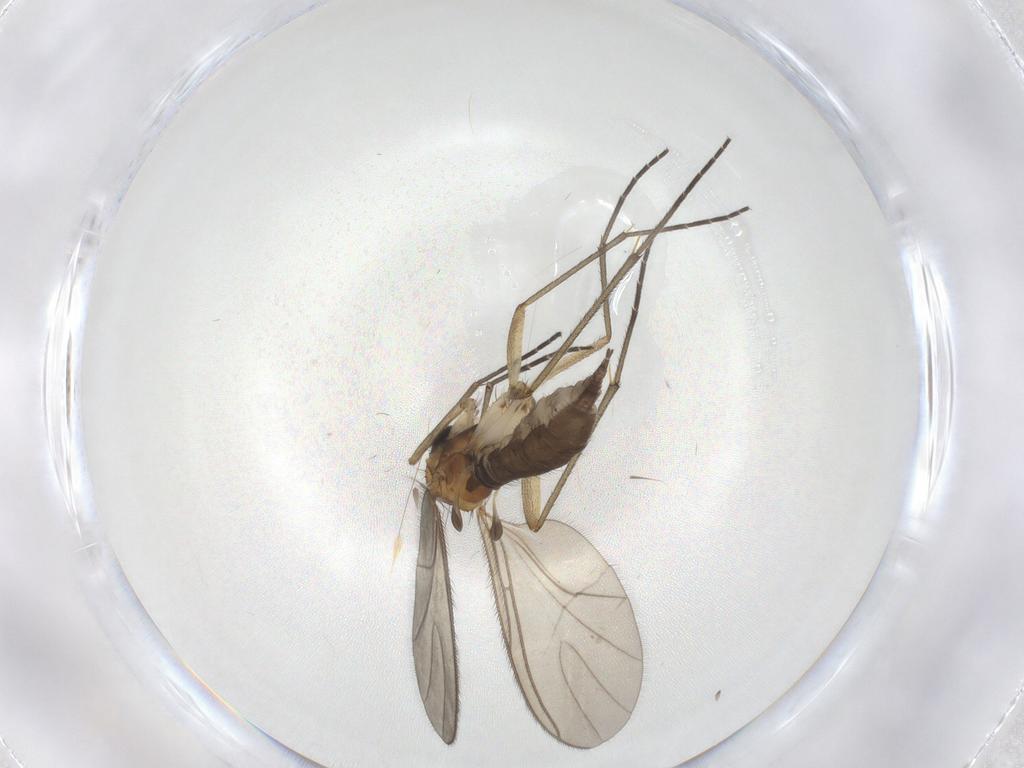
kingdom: Animalia
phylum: Arthropoda
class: Insecta
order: Diptera
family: Sciaridae
